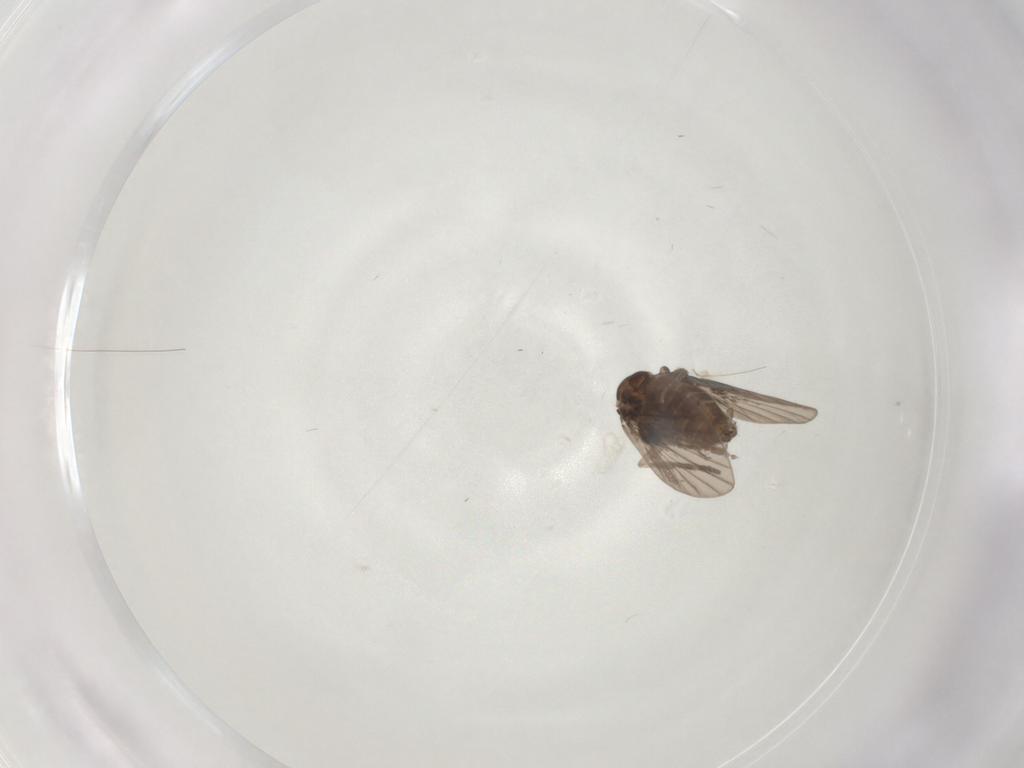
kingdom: Animalia
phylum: Arthropoda
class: Insecta
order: Diptera
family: Psychodidae
